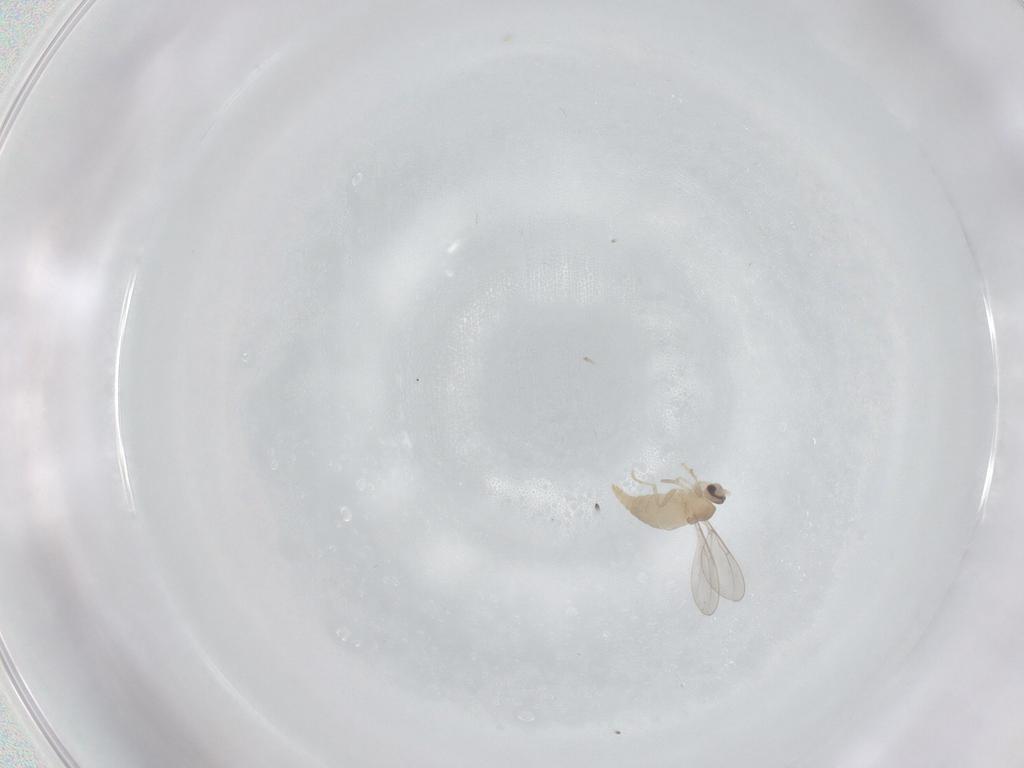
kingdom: Animalia
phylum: Arthropoda
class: Insecta
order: Diptera
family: Cecidomyiidae
